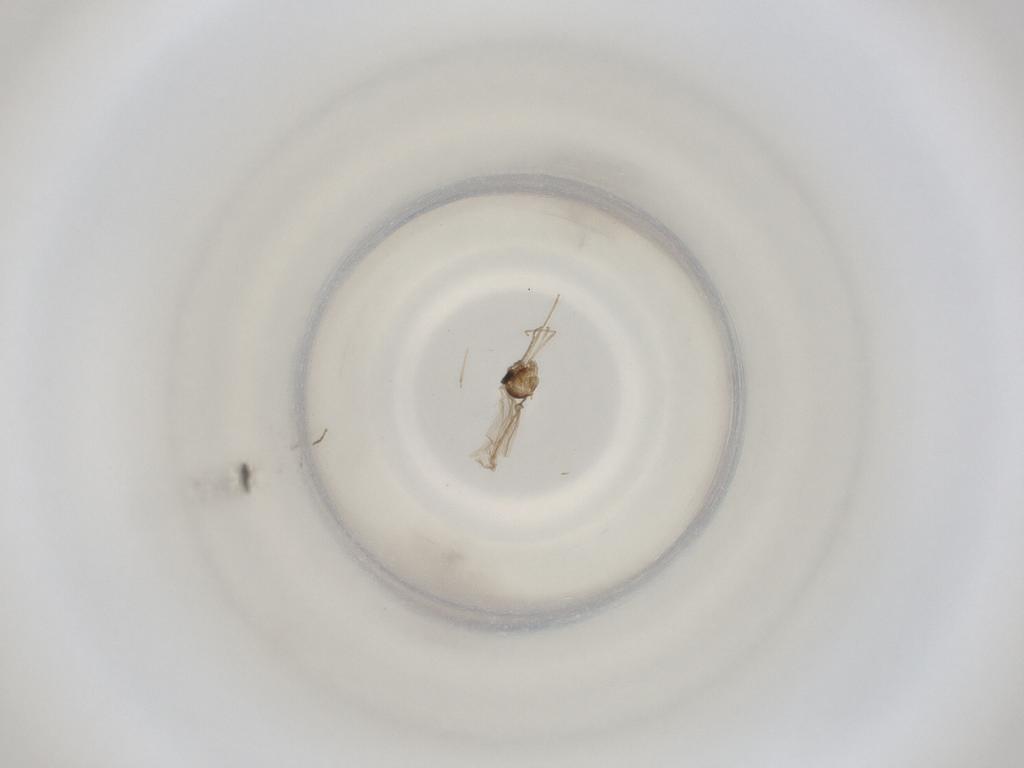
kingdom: Animalia
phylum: Arthropoda
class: Insecta
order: Diptera
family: Cecidomyiidae
